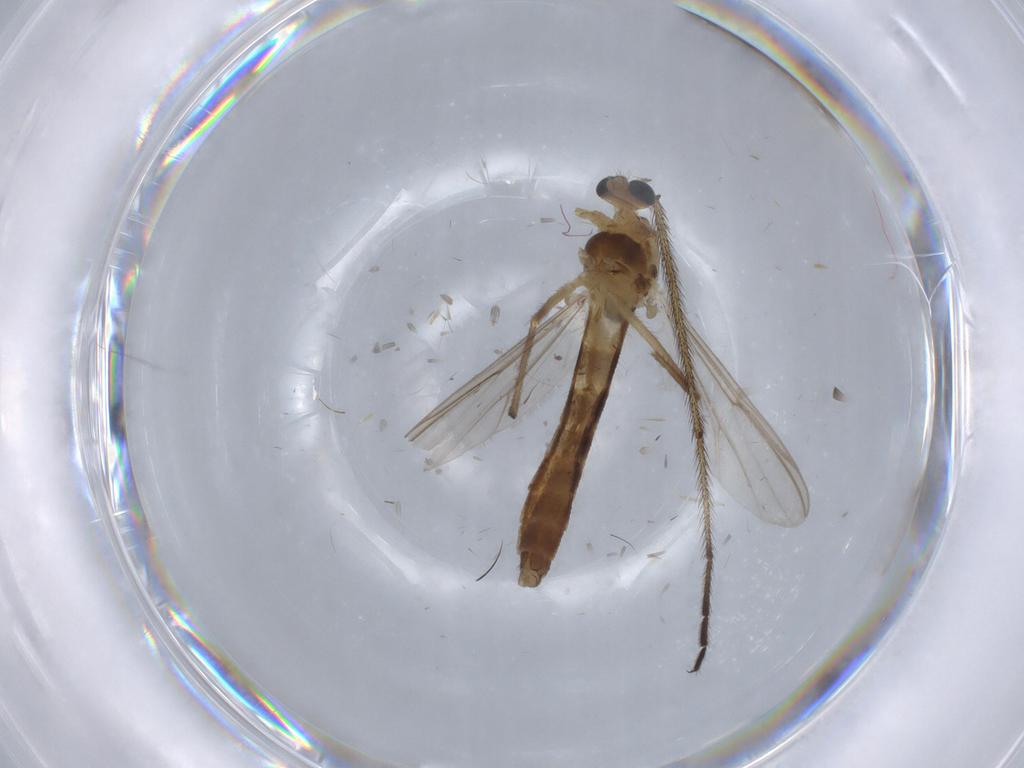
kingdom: Animalia
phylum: Arthropoda
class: Insecta
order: Diptera
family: Chironomidae
